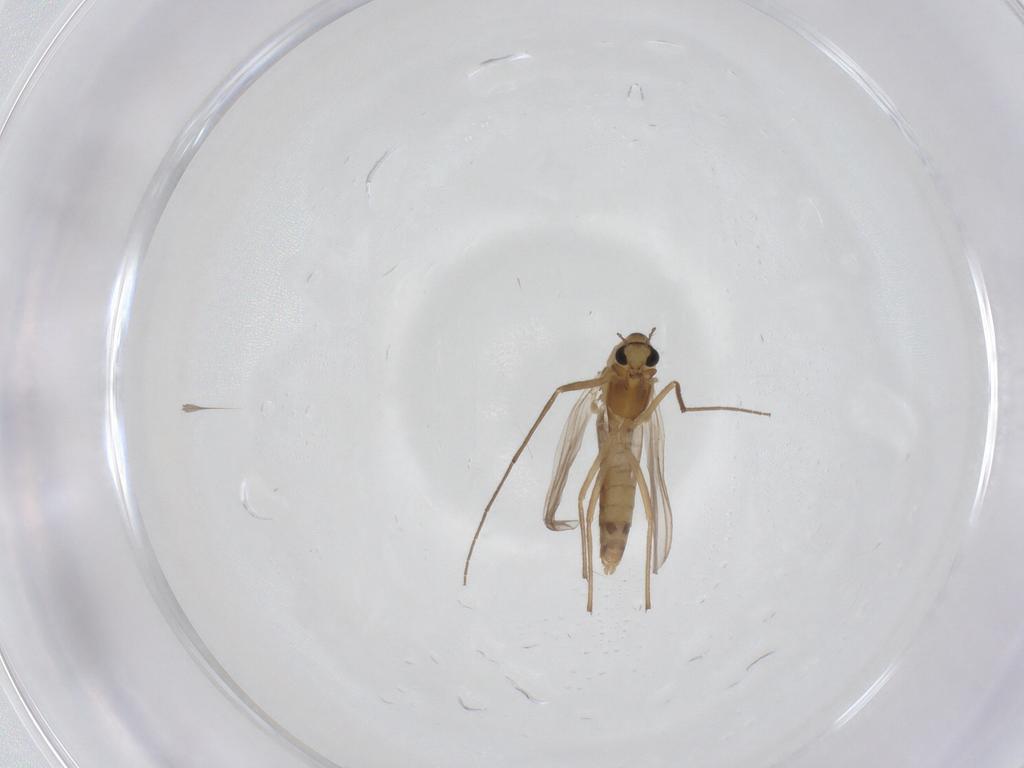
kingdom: Animalia
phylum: Arthropoda
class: Insecta
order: Diptera
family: Chironomidae
